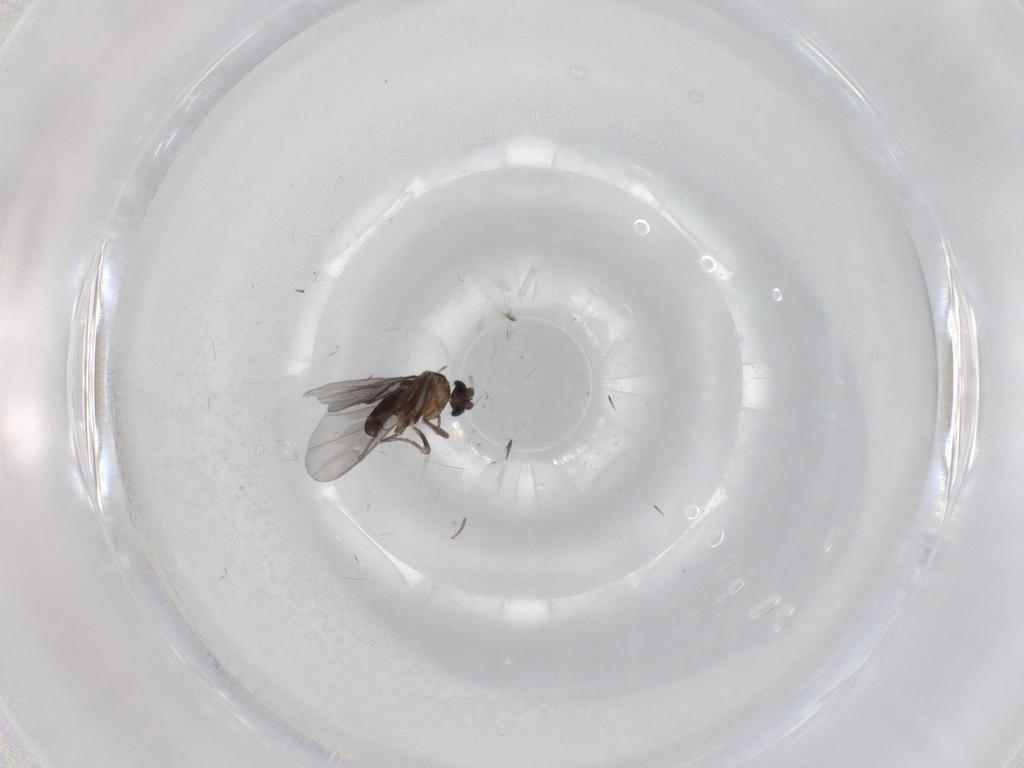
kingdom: Animalia
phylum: Arthropoda
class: Insecta
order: Diptera
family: Phoridae
